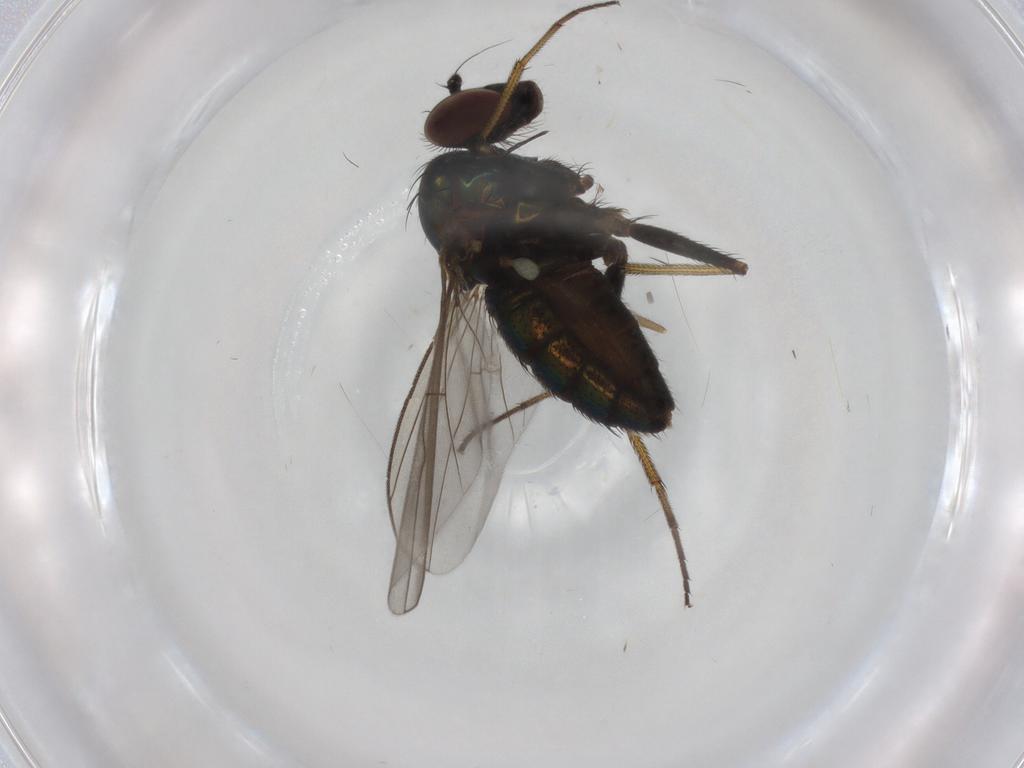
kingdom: Animalia
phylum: Arthropoda
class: Insecta
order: Diptera
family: Dolichopodidae
